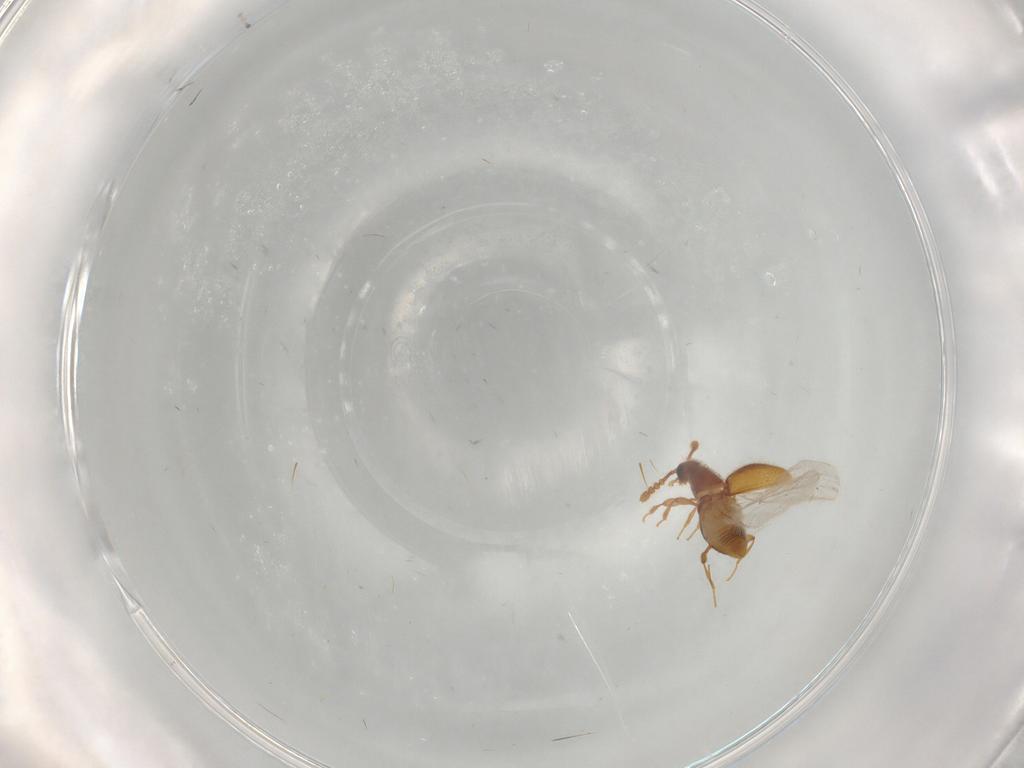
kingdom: Animalia
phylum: Arthropoda
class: Insecta
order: Coleoptera
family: Staphylinidae
